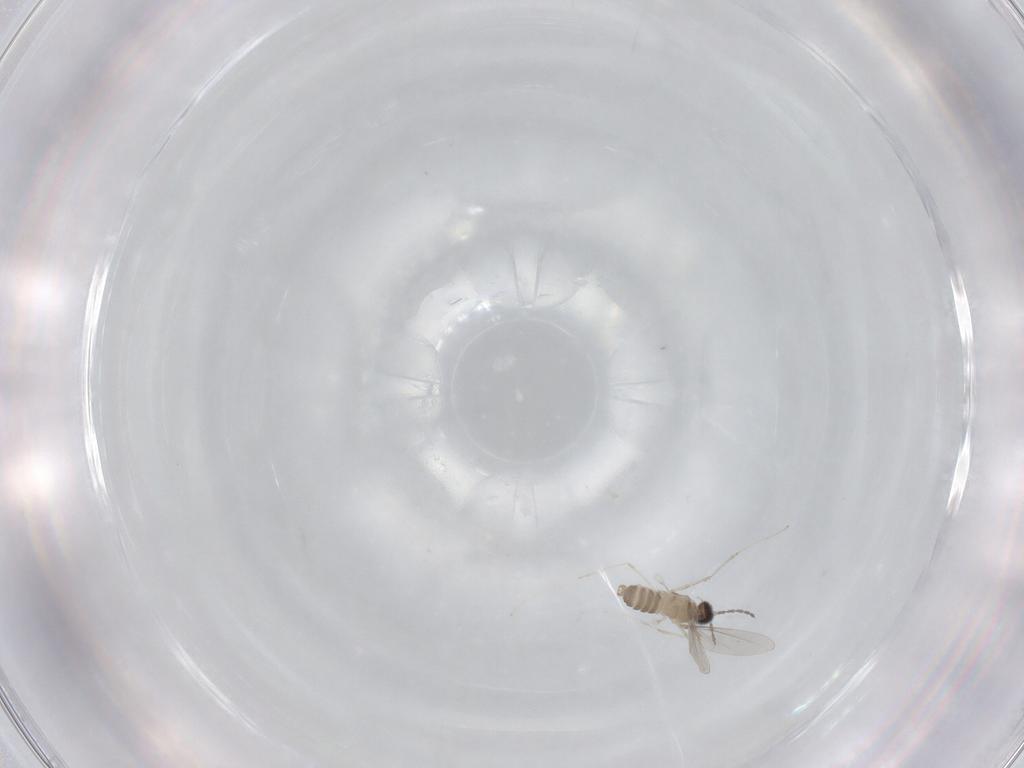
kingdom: Animalia
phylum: Arthropoda
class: Insecta
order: Diptera
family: Cecidomyiidae
